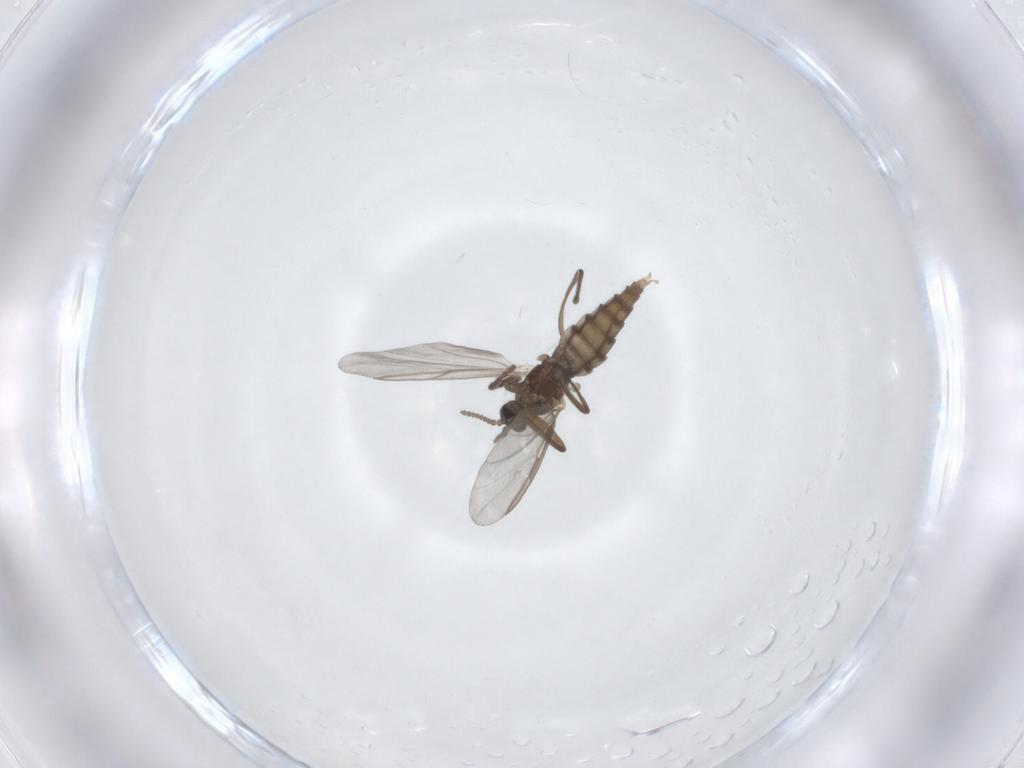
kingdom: Animalia
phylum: Arthropoda
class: Insecta
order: Diptera
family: Cecidomyiidae
